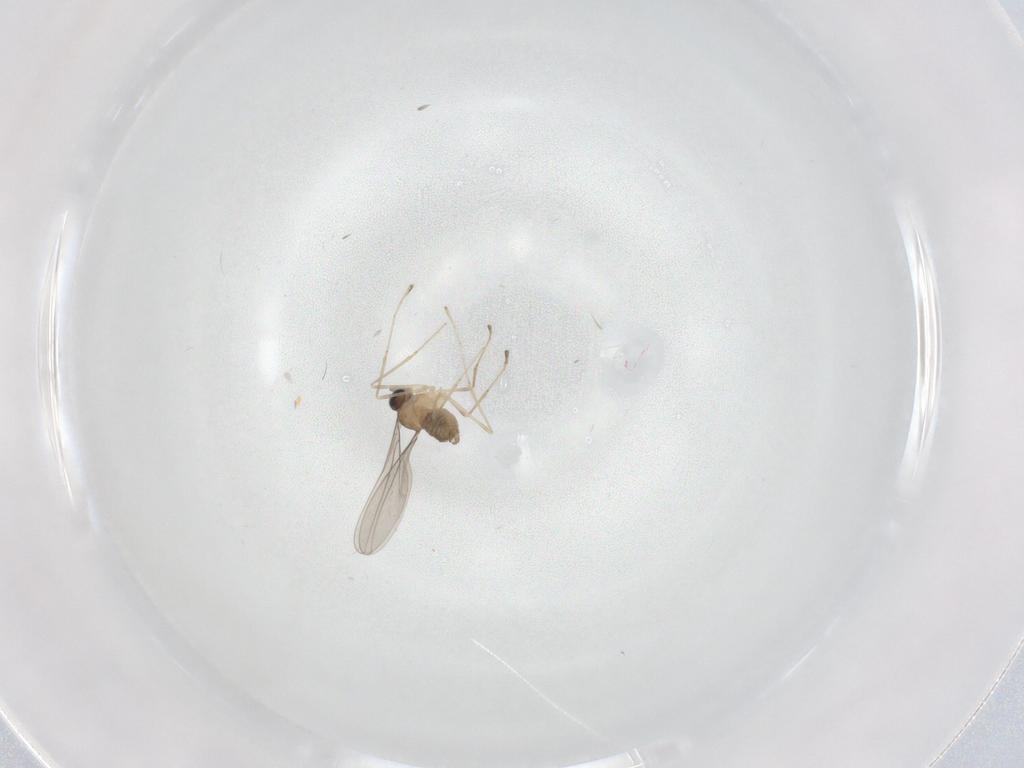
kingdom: Animalia
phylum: Arthropoda
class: Insecta
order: Diptera
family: Cecidomyiidae
